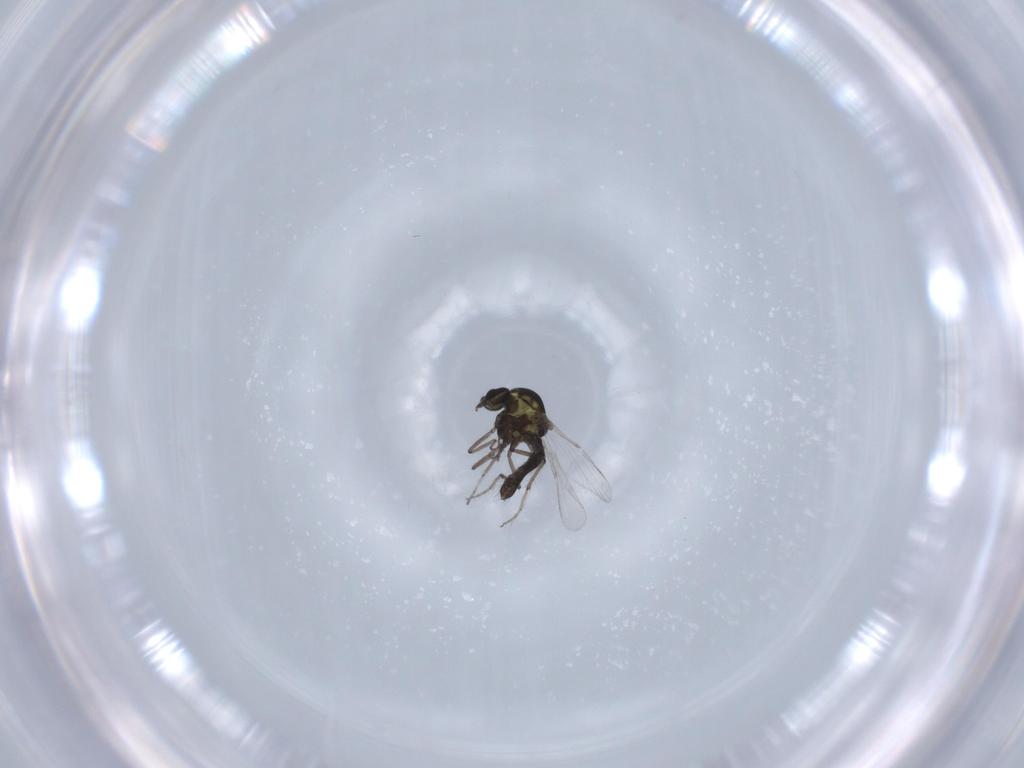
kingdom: Animalia
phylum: Arthropoda
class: Insecta
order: Diptera
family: Ceratopogonidae
